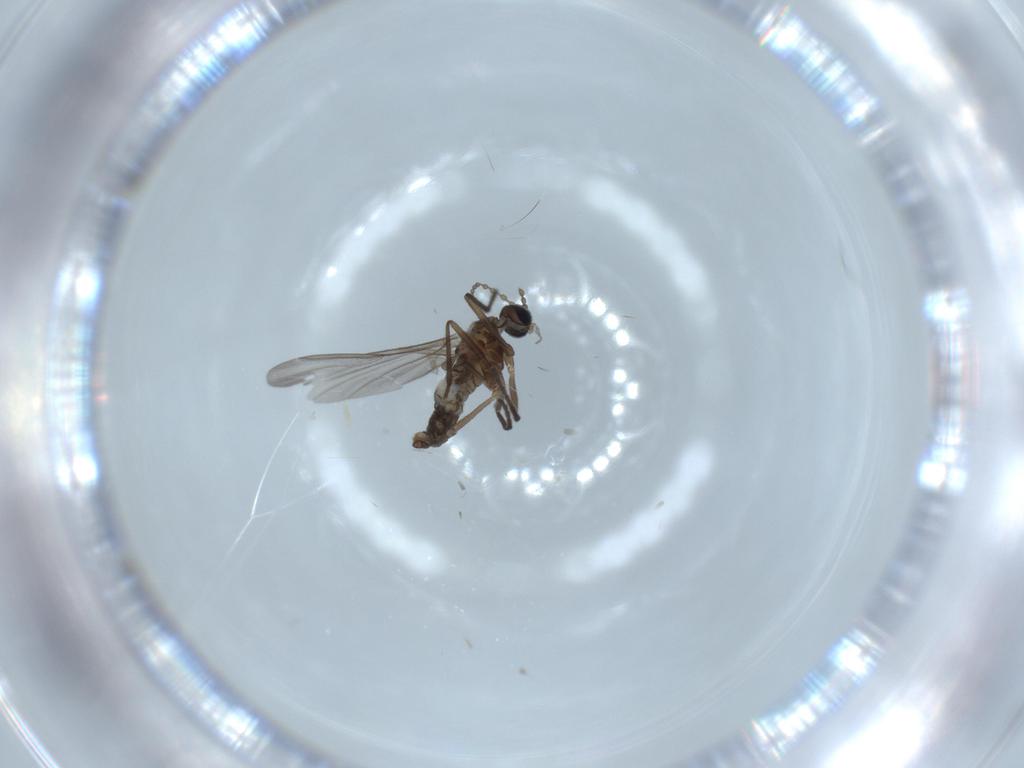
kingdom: Animalia
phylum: Arthropoda
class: Insecta
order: Diptera
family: Cecidomyiidae
